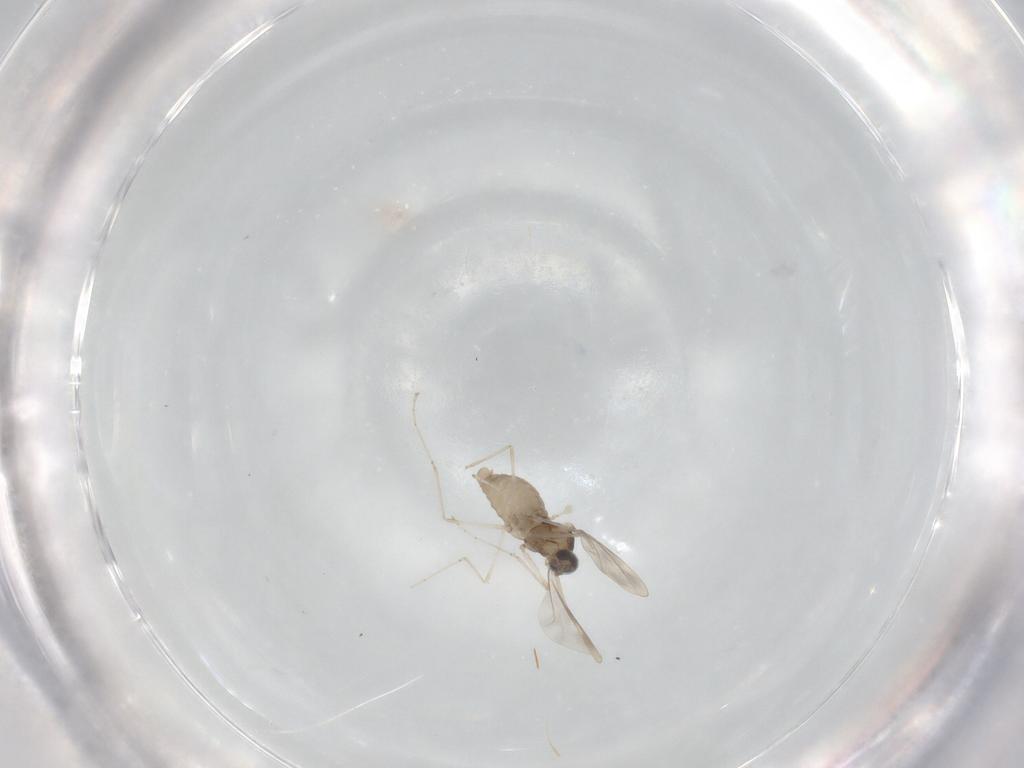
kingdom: Animalia
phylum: Arthropoda
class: Insecta
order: Diptera
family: Cecidomyiidae
